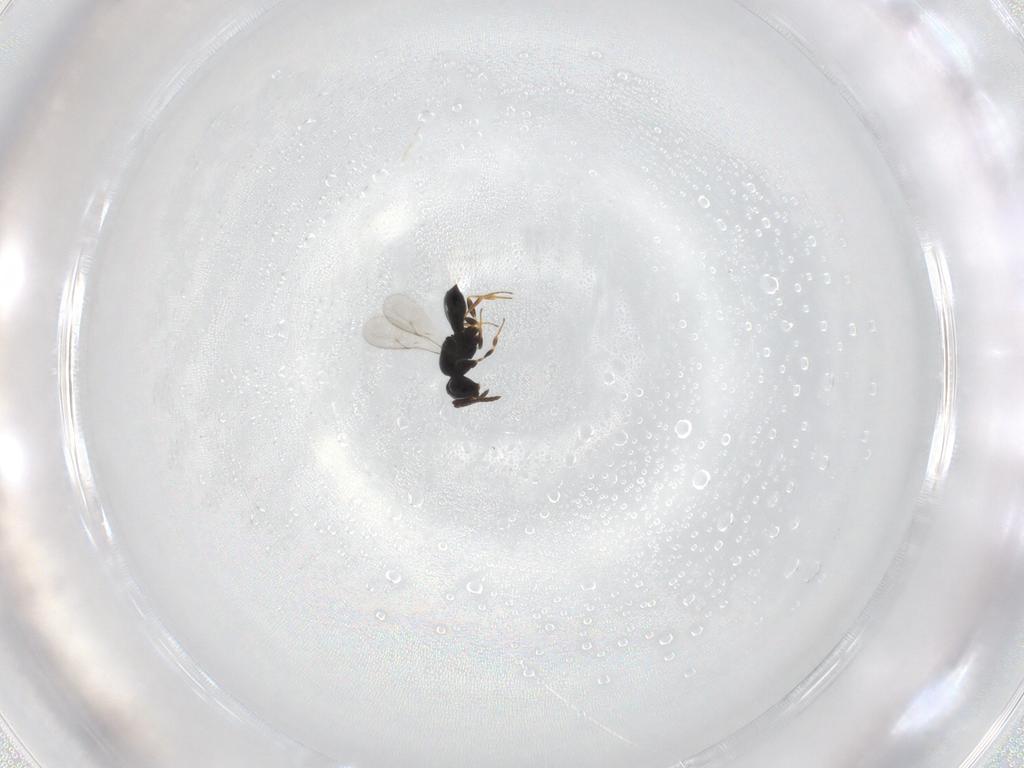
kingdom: Animalia
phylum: Arthropoda
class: Insecta
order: Hymenoptera
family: Scelionidae
